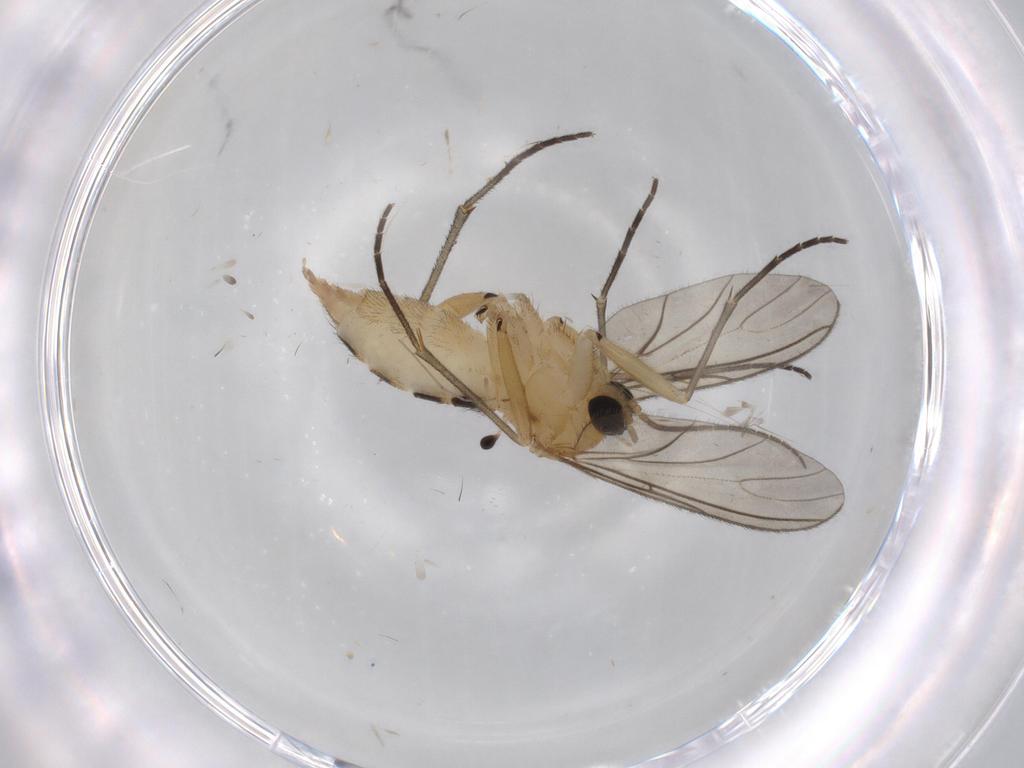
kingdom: Animalia
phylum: Arthropoda
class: Insecta
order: Diptera
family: Sciaridae
